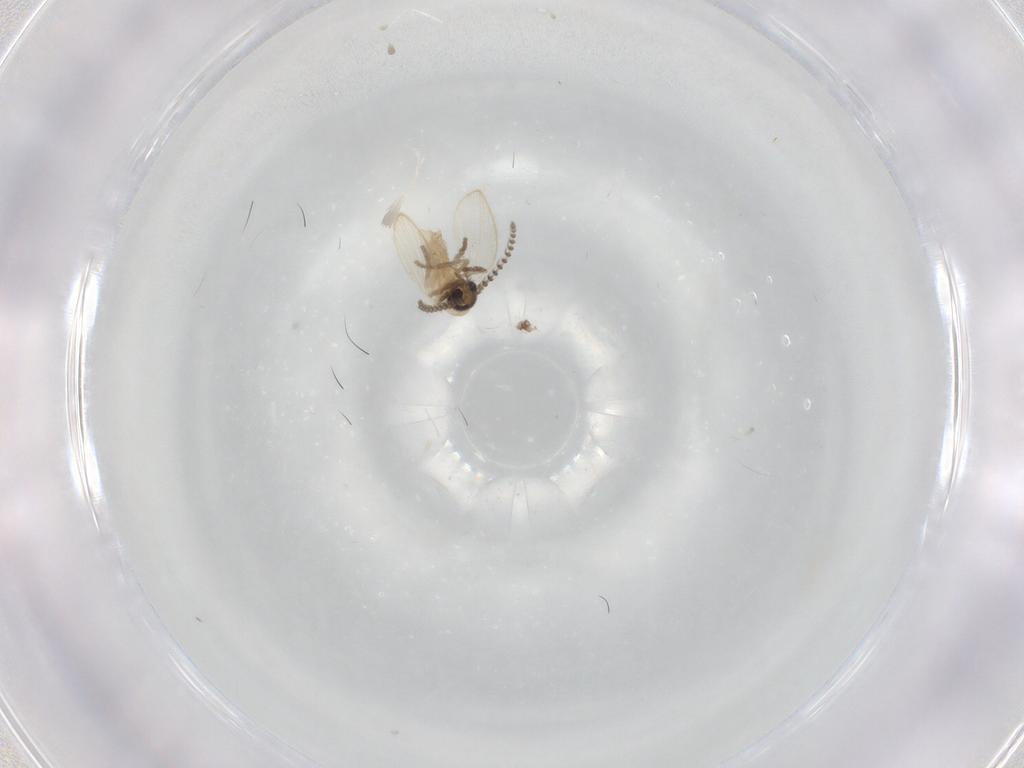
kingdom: Animalia
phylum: Arthropoda
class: Insecta
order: Diptera
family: Psychodidae
